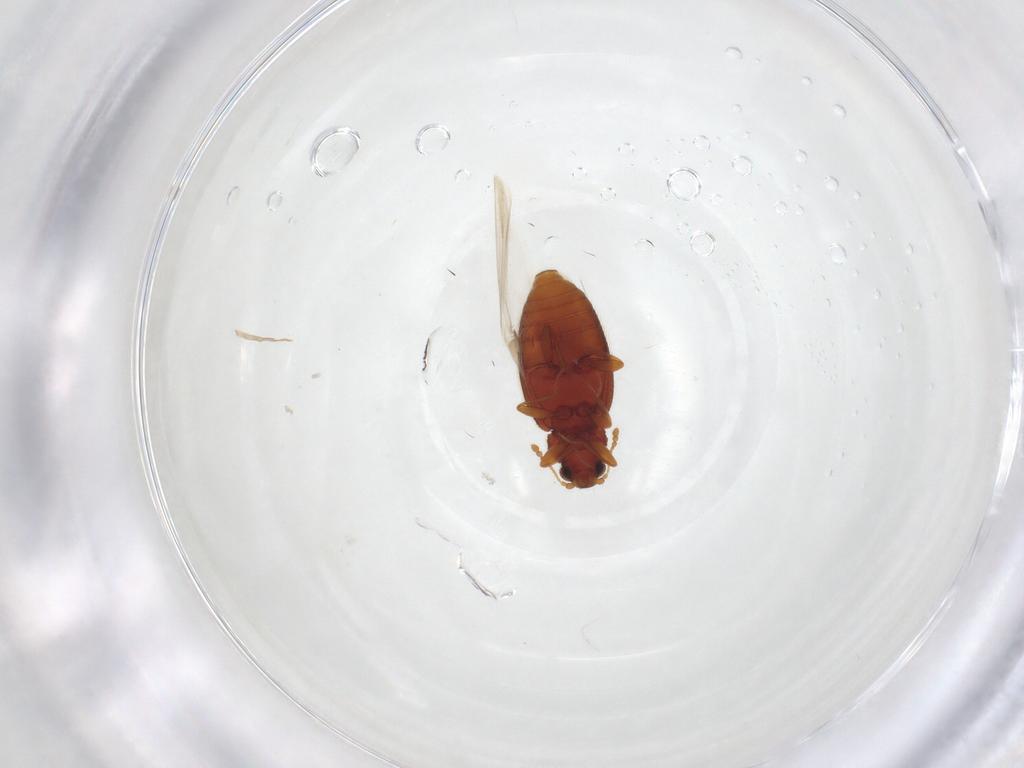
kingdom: Animalia
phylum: Arthropoda
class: Insecta
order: Coleoptera
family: Latridiidae
